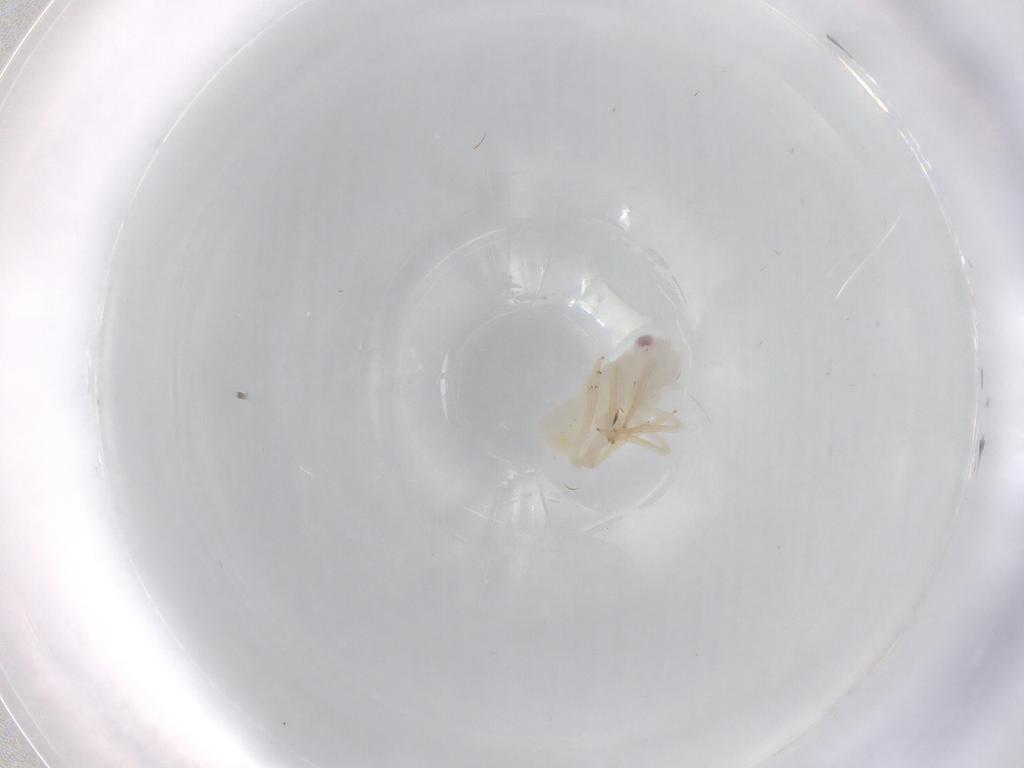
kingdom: Animalia
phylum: Arthropoda
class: Insecta
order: Hemiptera
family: Tropiduchidae
